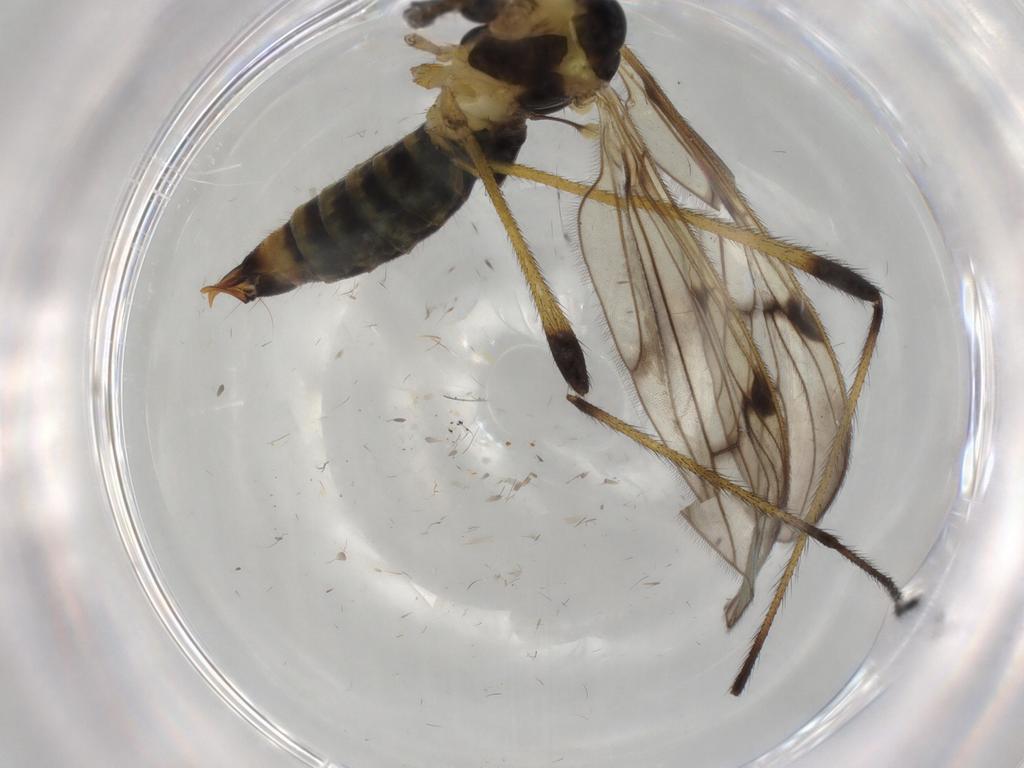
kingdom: Animalia
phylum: Arthropoda
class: Insecta
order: Diptera
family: Limoniidae
